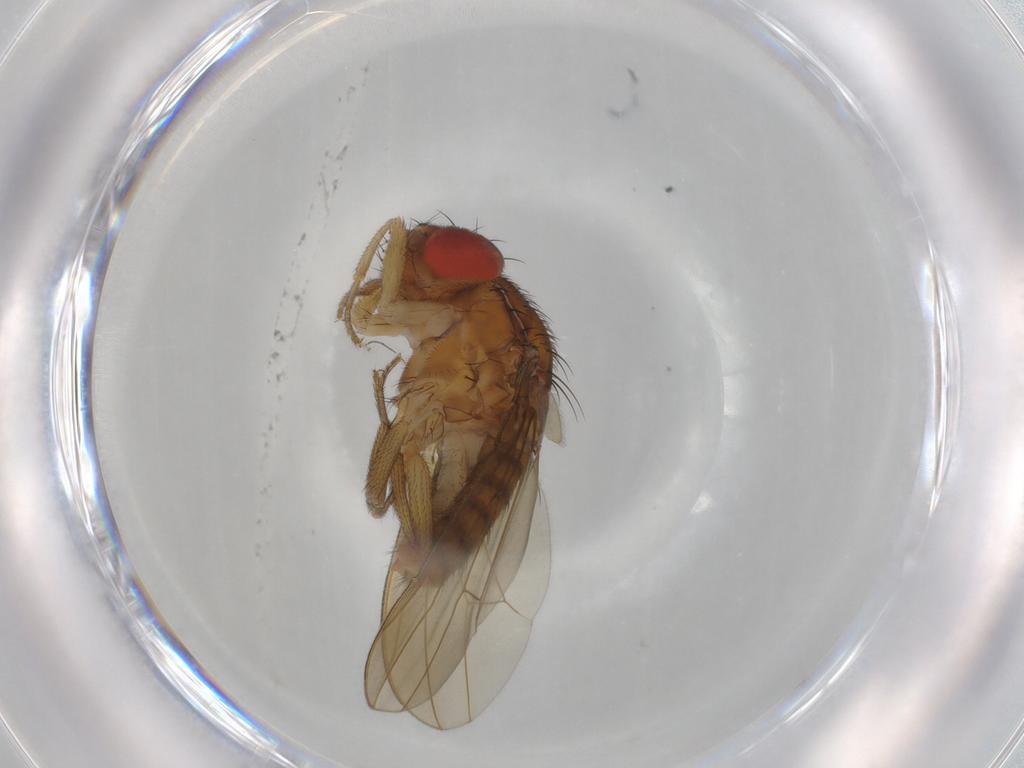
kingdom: Animalia
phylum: Arthropoda
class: Insecta
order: Diptera
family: Drosophilidae
